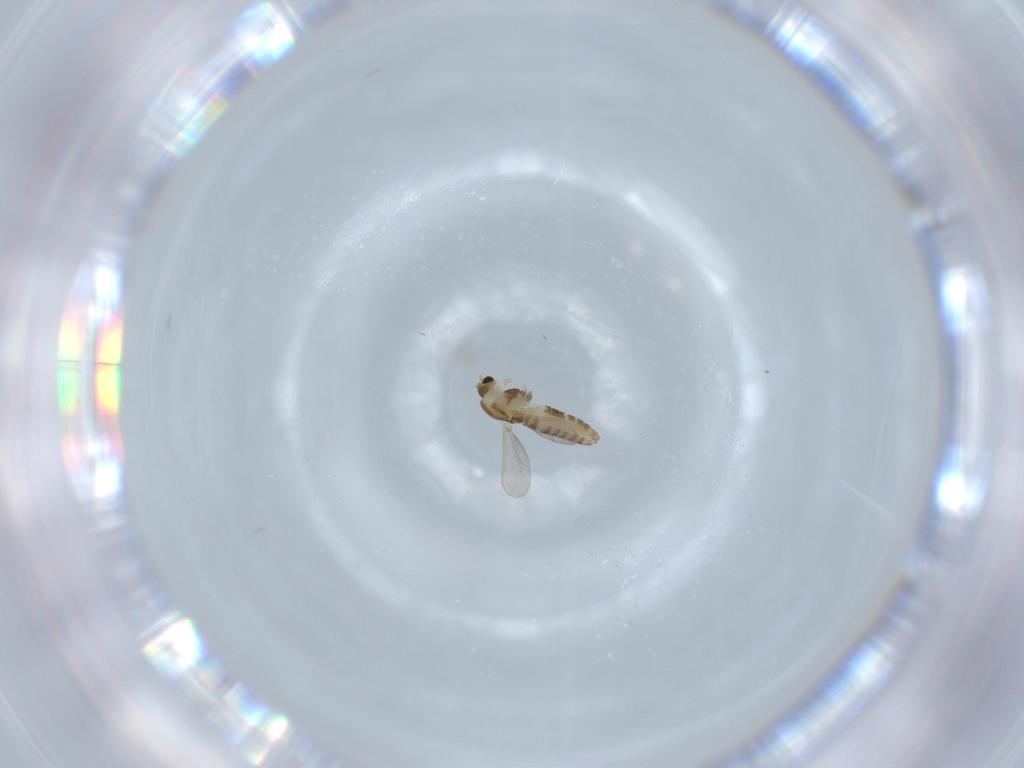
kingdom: Animalia
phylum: Arthropoda
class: Insecta
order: Diptera
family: Chironomidae
